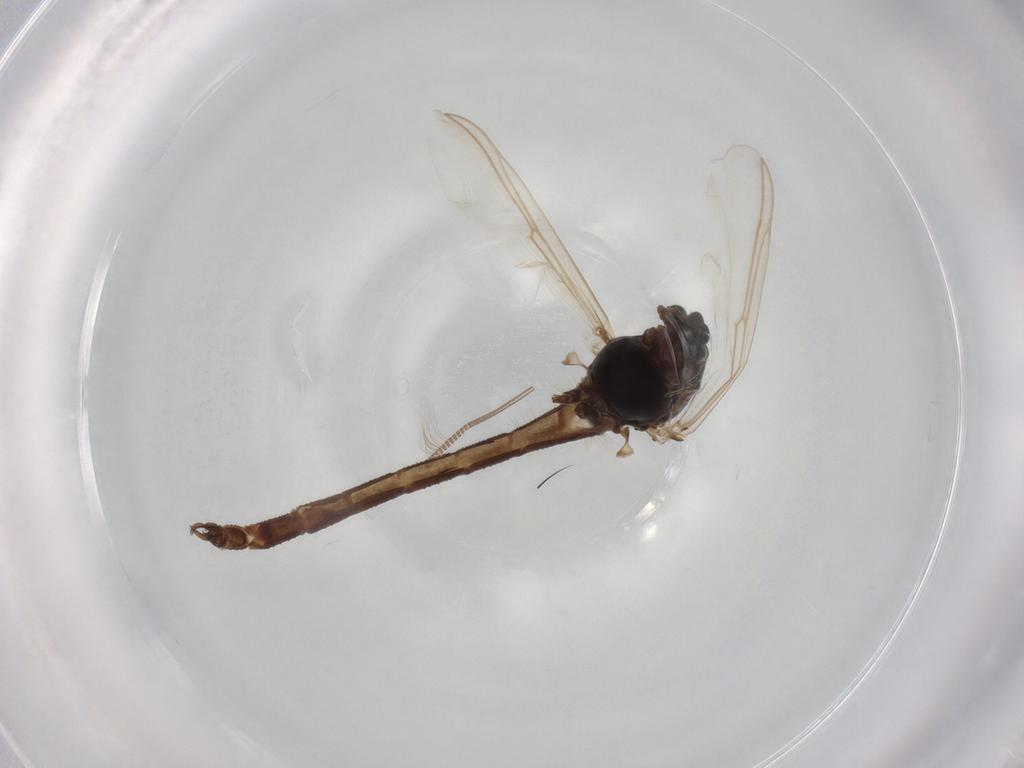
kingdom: Animalia
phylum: Arthropoda
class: Insecta
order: Diptera
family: Chironomidae
